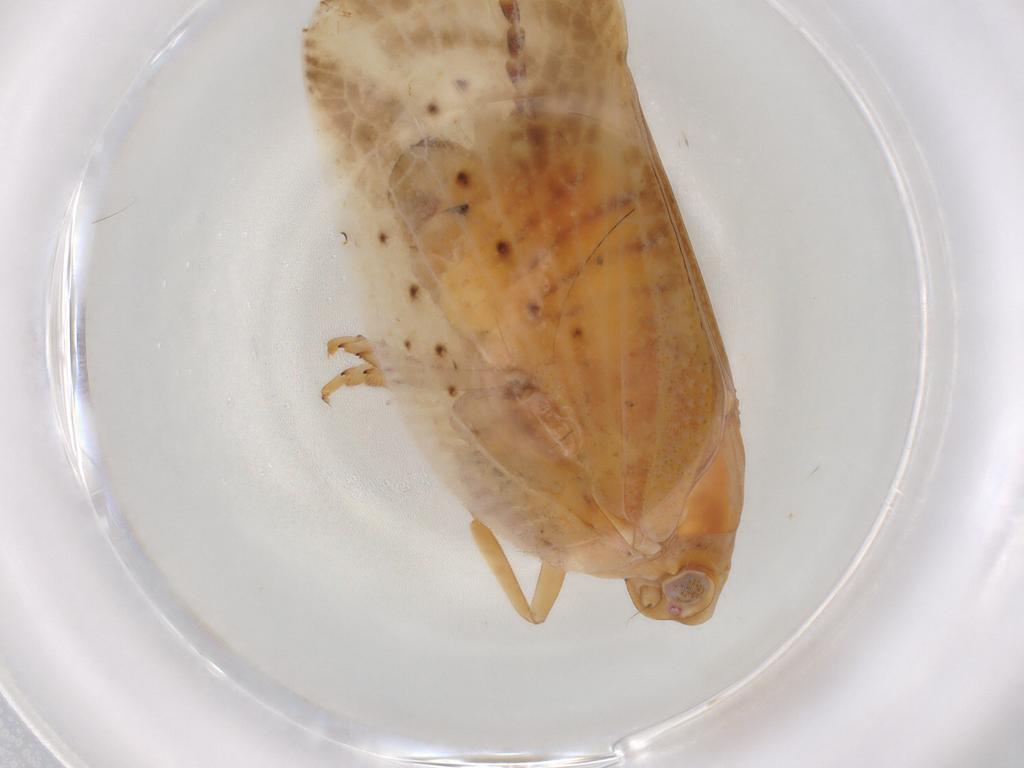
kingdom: Animalia
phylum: Arthropoda
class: Insecta
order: Hemiptera
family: Flatidae
